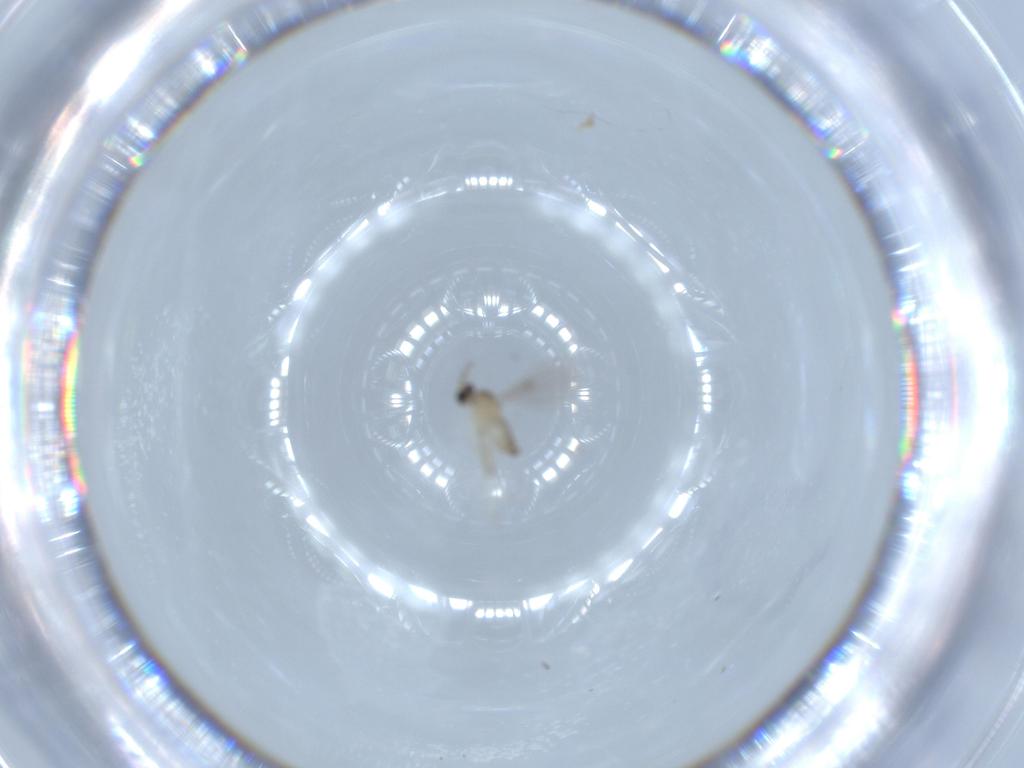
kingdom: Animalia
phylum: Arthropoda
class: Insecta
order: Diptera
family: Cecidomyiidae
